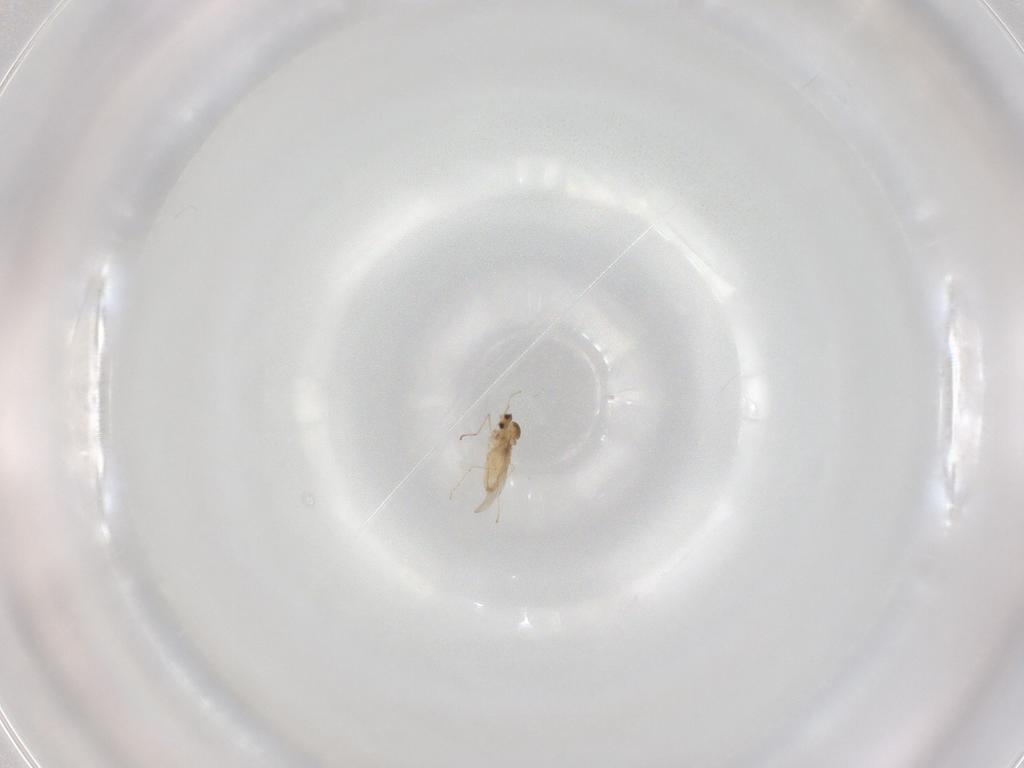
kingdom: Animalia
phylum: Arthropoda
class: Insecta
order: Diptera
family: Cecidomyiidae
